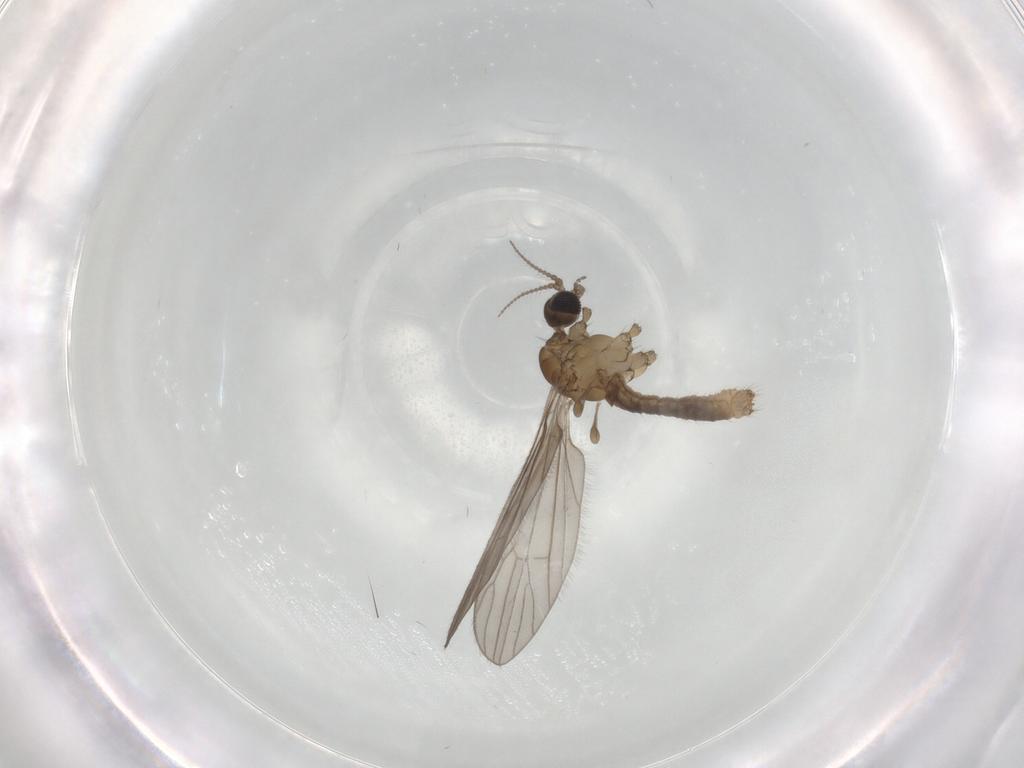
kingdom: Animalia
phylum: Arthropoda
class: Insecta
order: Diptera
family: Limoniidae
